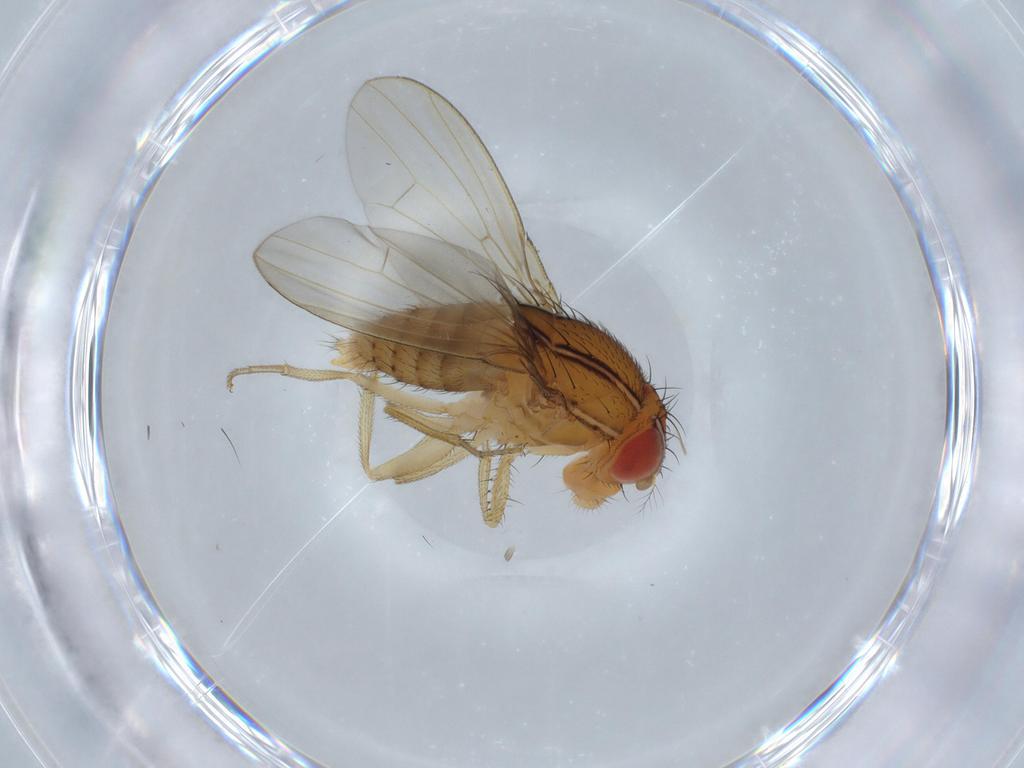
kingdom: Animalia
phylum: Arthropoda
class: Insecta
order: Diptera
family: Drosophilidae
